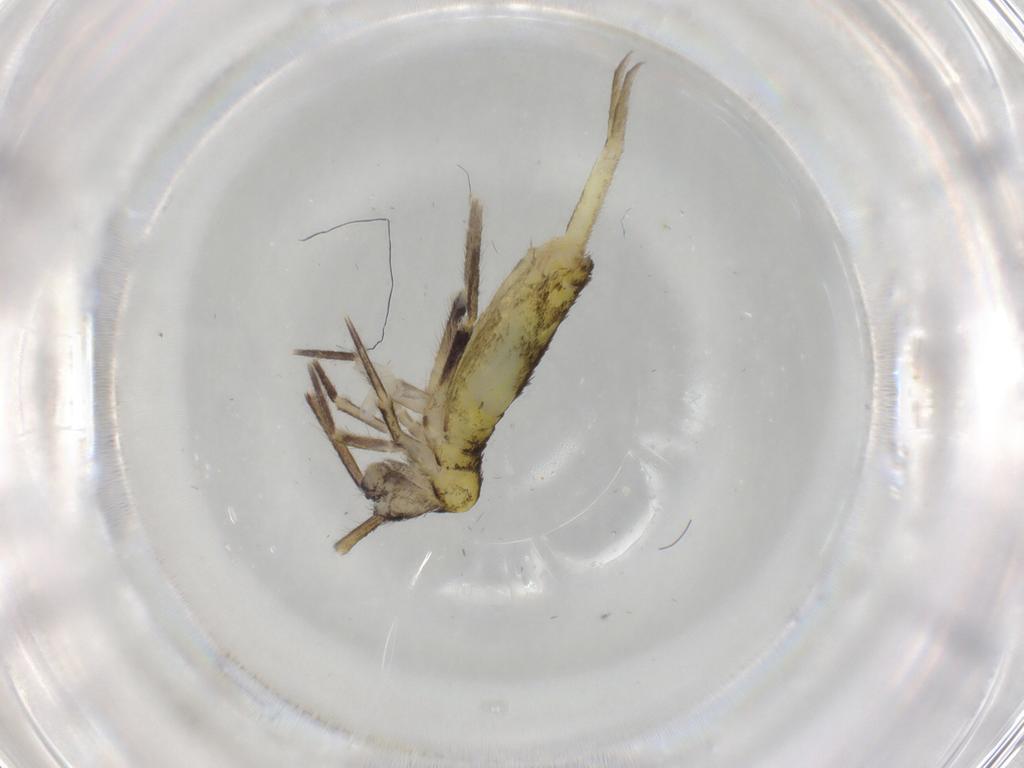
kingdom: Animalia
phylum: Arthropoda
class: Collembola
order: Entomobryomorpha
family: Entomobryidae
